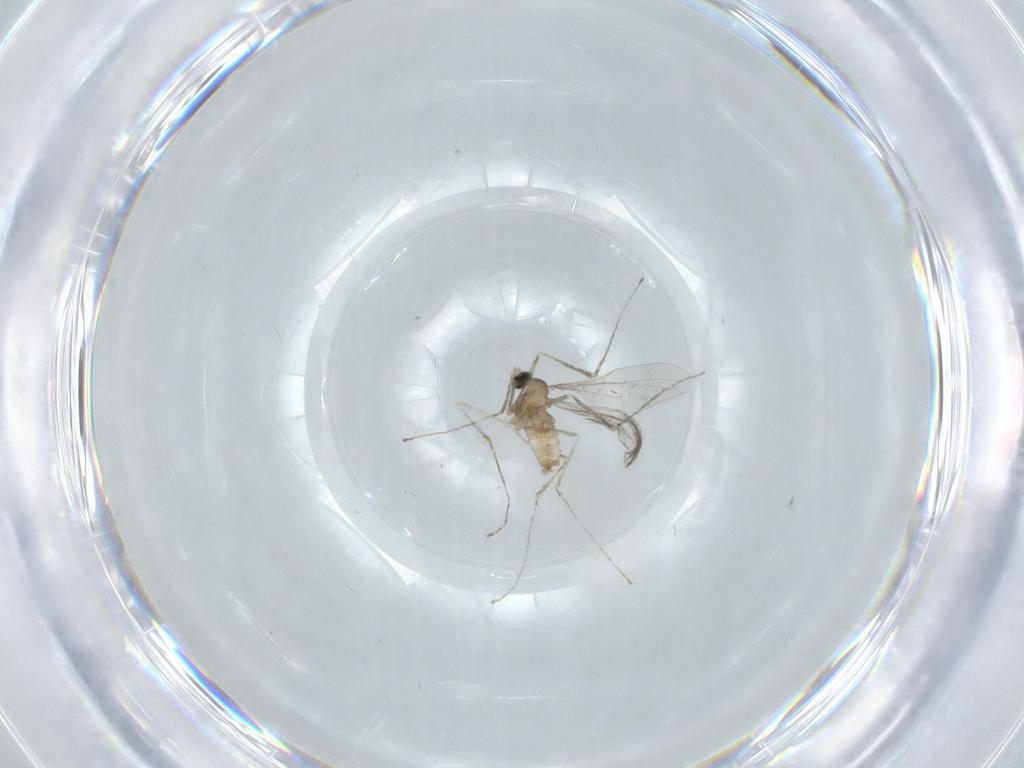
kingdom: Animalia
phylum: Arthropoda
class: Insecta
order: Diptera
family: Cecidomyiidae
